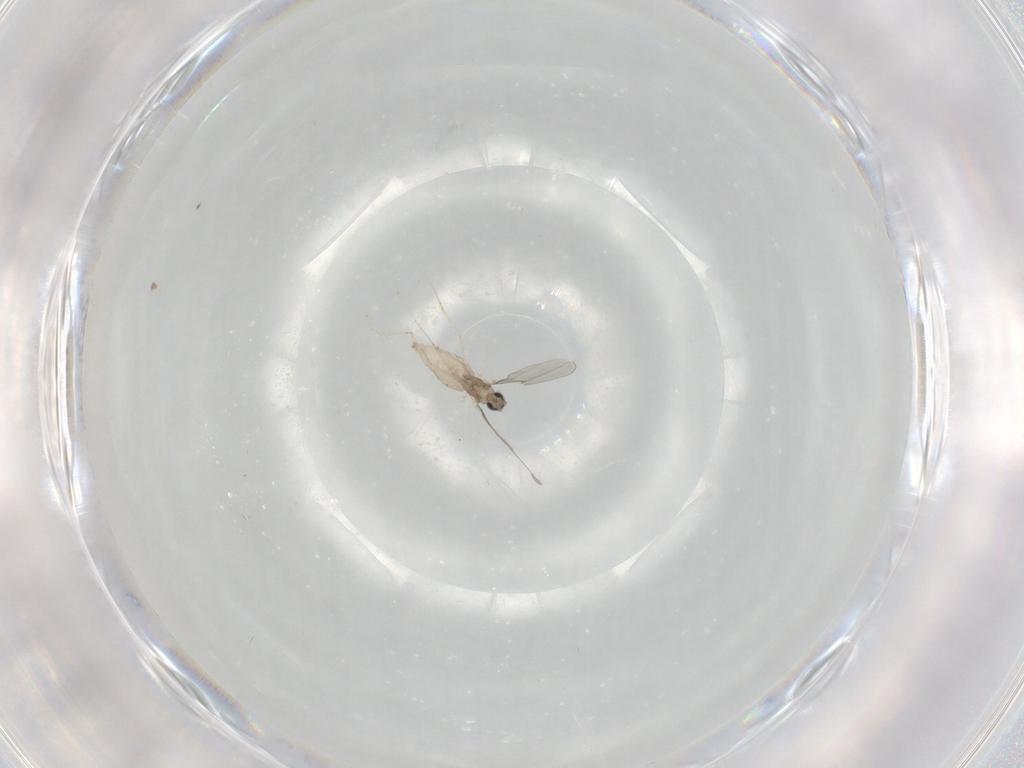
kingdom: Animalia
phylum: Arthropoda
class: Insecta
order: Diptera
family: Cecidomyiidae
